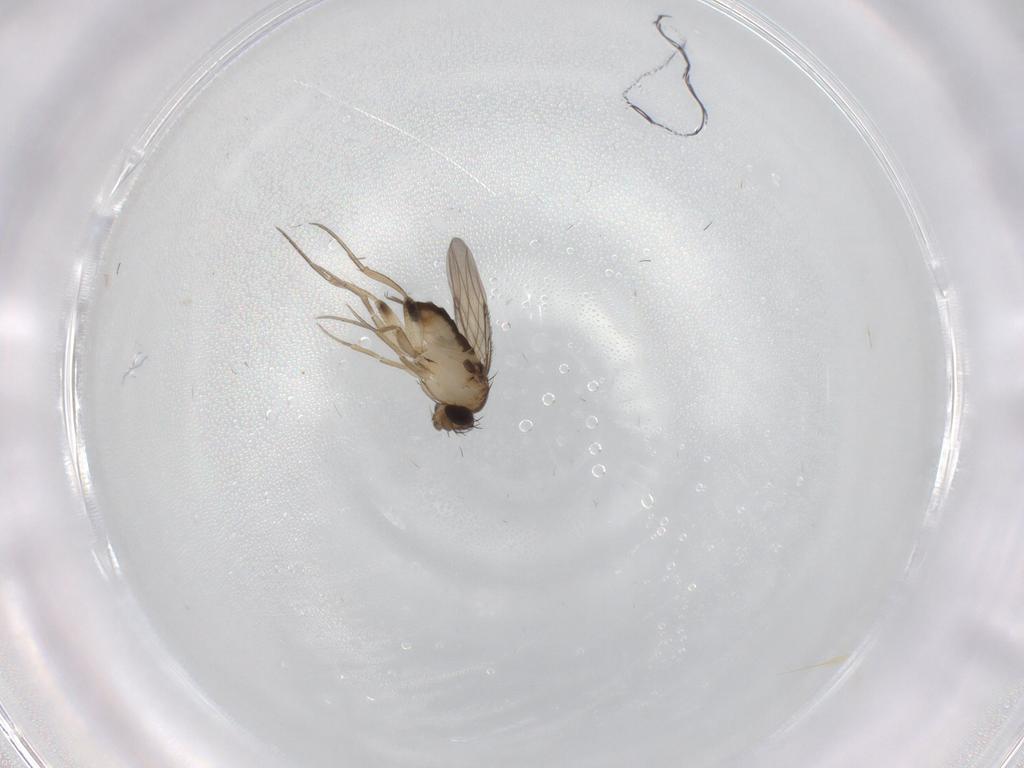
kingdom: Animalia
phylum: Arthropoda
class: Insecta
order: Diptera
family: Phoridae
